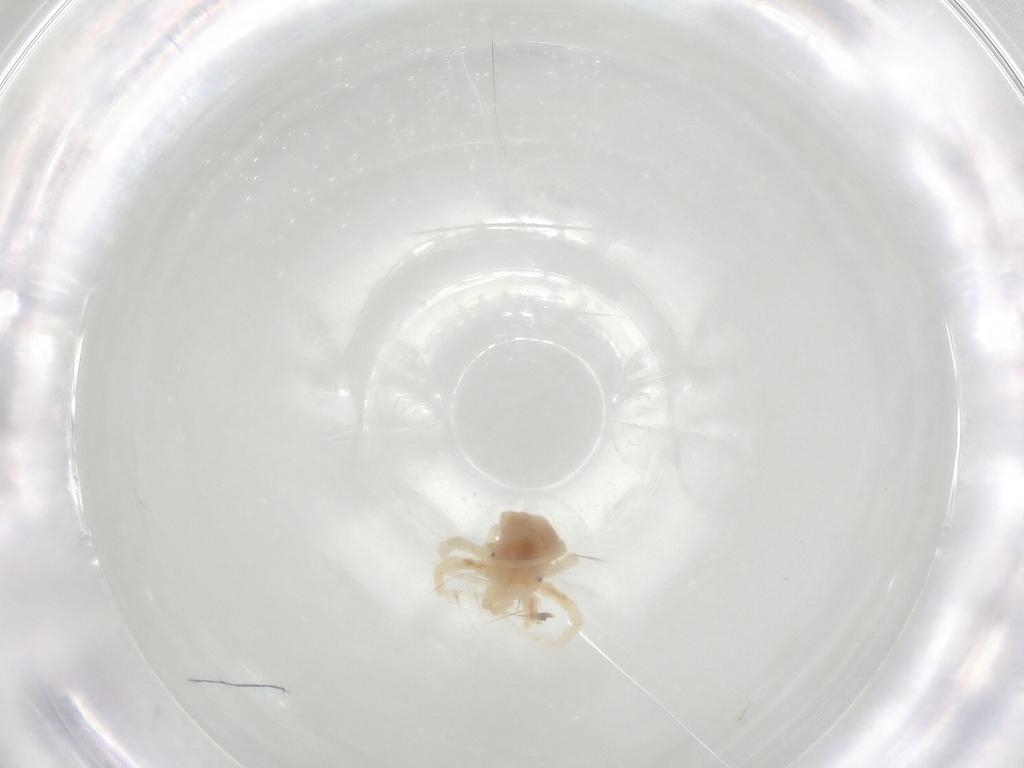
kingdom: Animalia
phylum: Arthropoda
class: Arachnida
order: Trombidiformes
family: Anystidae
